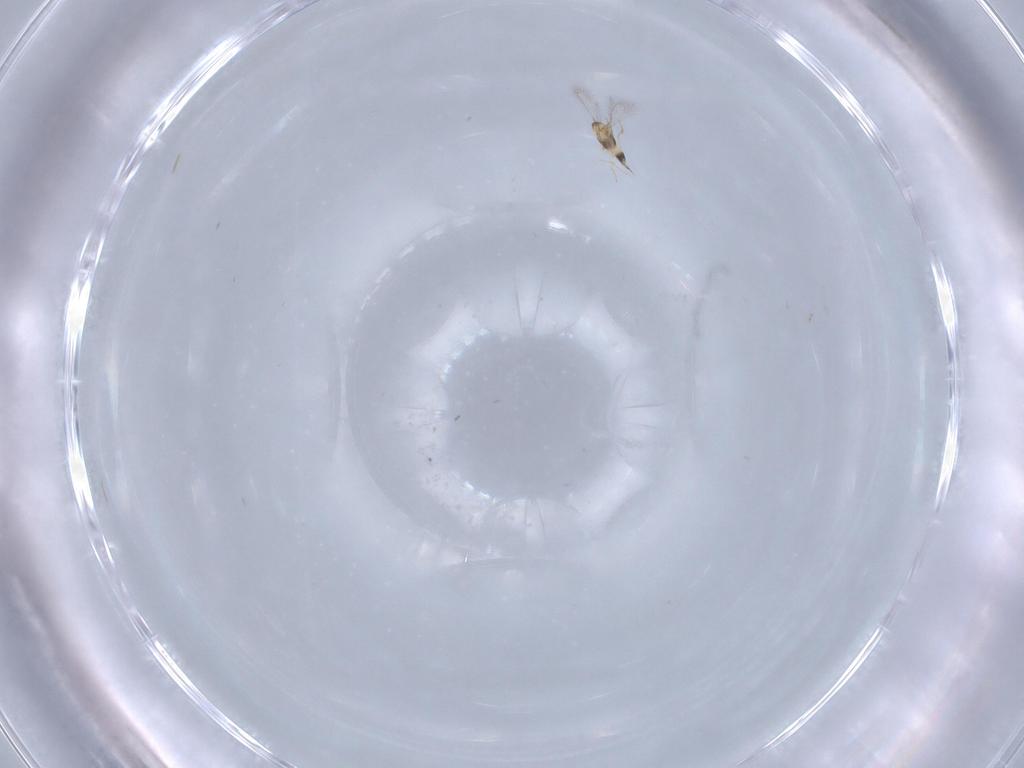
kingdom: Animalia
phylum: Arthropoda
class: Insecta
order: Hymenoptera
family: Mymaridae
